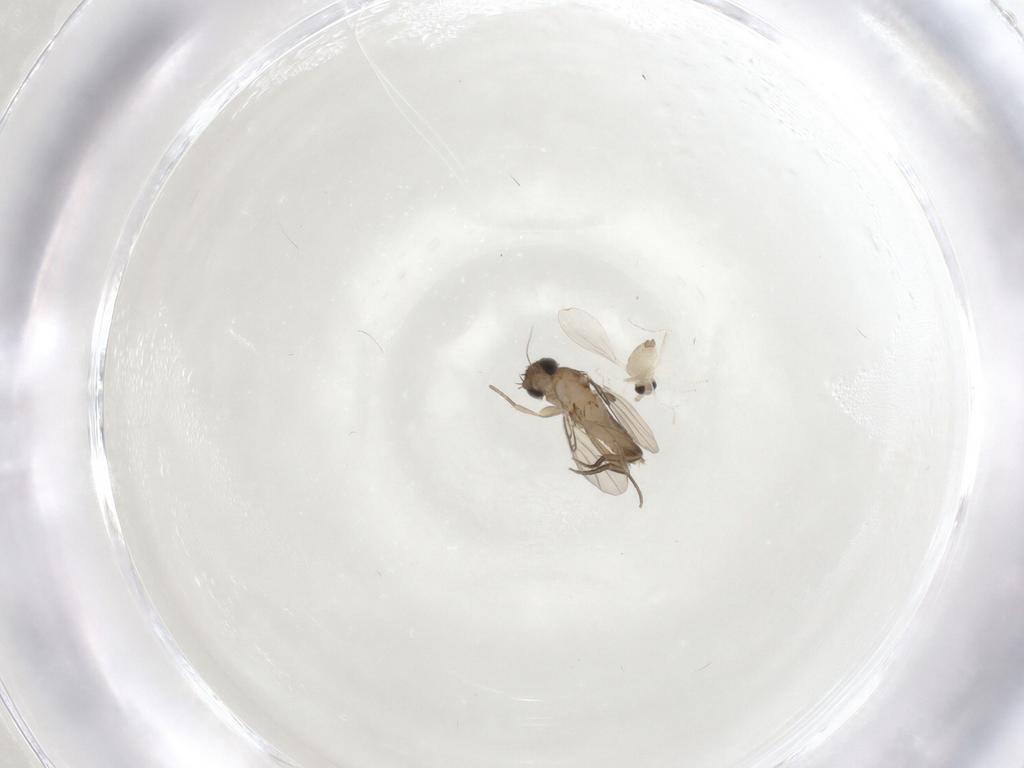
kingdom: Animalia
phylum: Arthropoda
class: Insecta
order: Diptera
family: Cecidomyiidae
